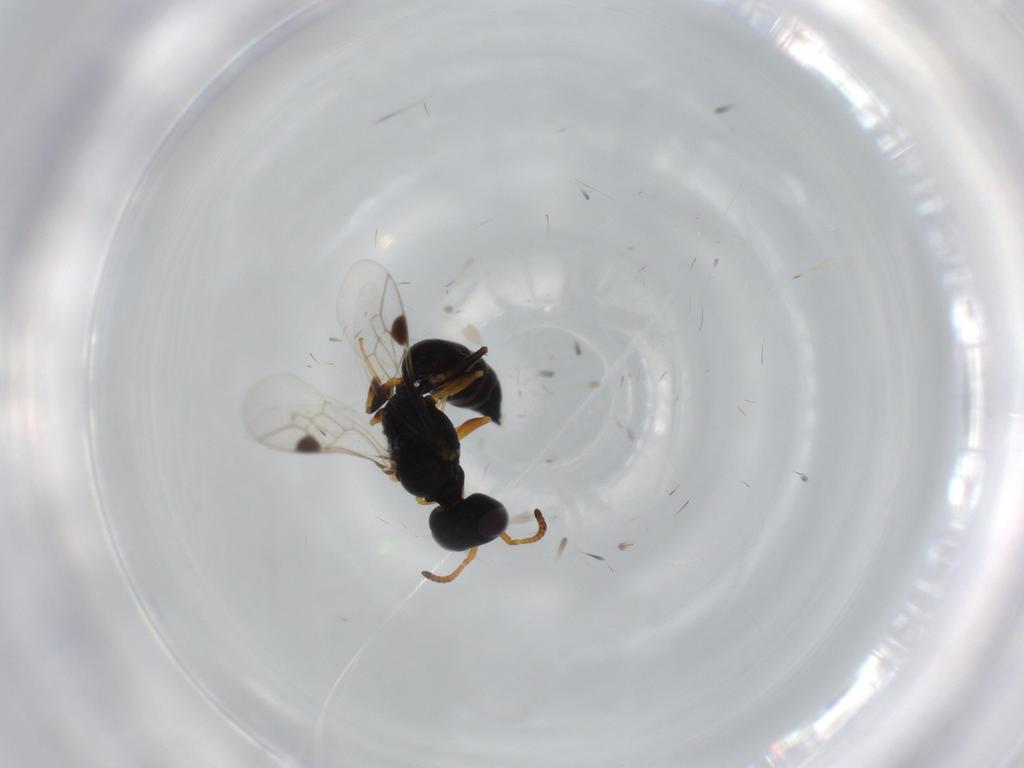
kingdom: Animalia
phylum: Arthropoda
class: Insecta
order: Hymenoptera
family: Pemphredonidae
